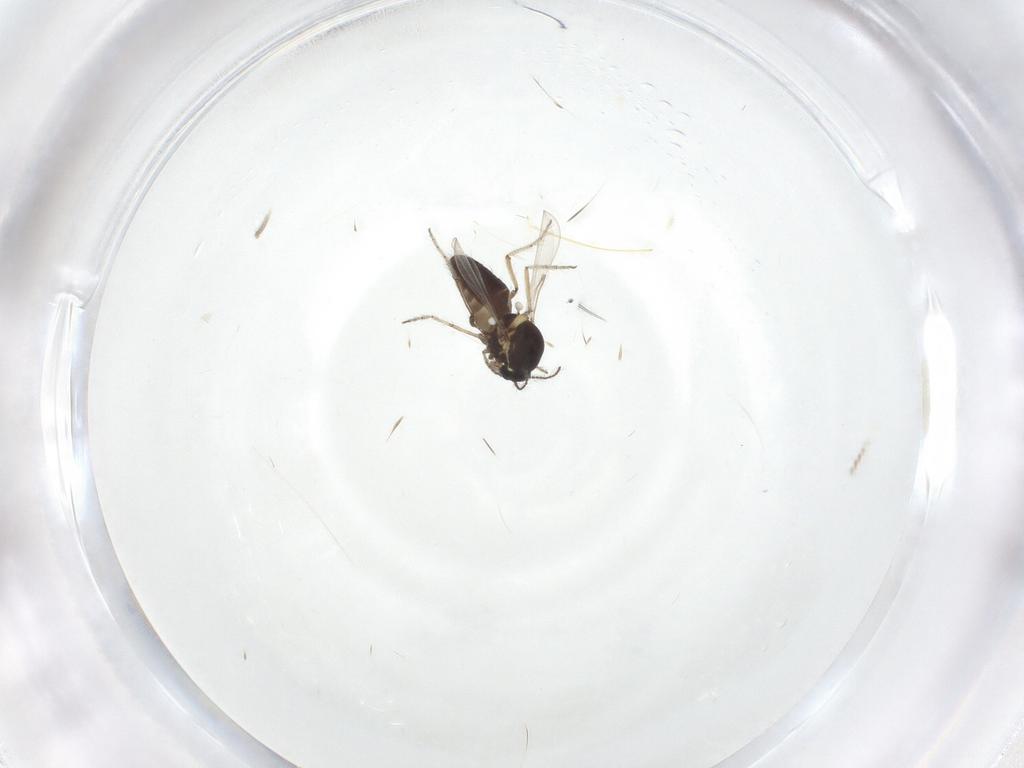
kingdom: Animalia
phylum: Arthropoda
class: Insecta
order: Diptera
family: Ceratopogonidae
